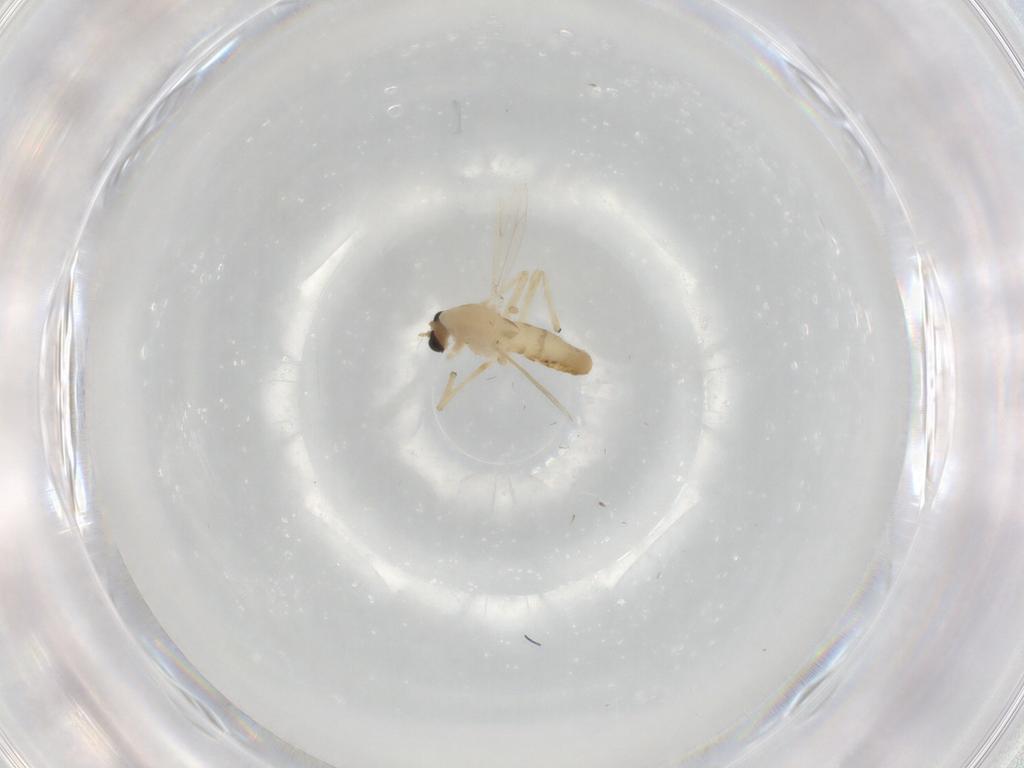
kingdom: Animalia
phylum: Arthropoda
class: Insecta
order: Diptera
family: Chironomidae
